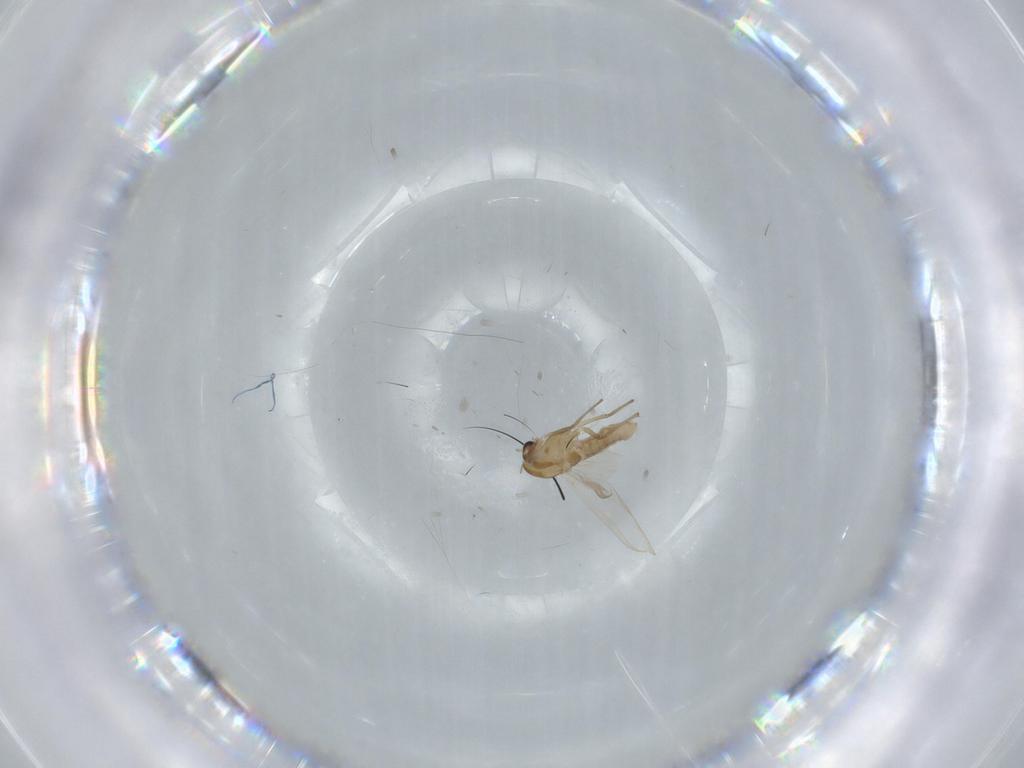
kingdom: Animalia
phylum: Arthropoda
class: Insecta
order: Diptera
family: Chironomidae
